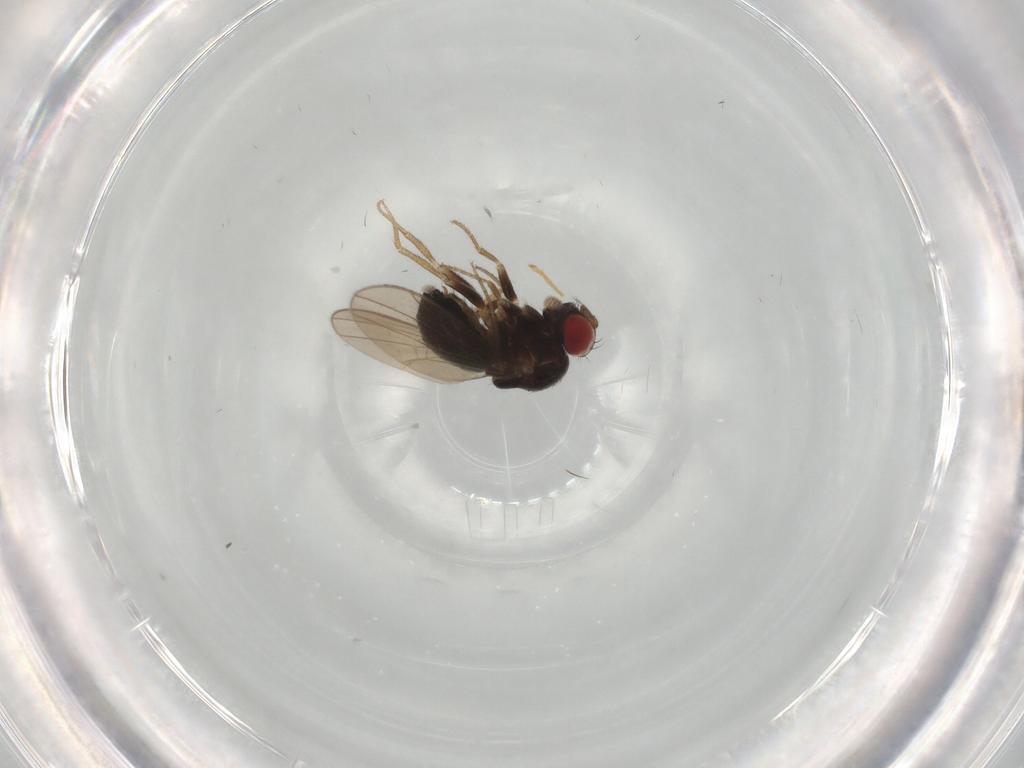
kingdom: Animalia
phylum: Arthropoda
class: Insecta
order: Diptera
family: Drosophilidae
